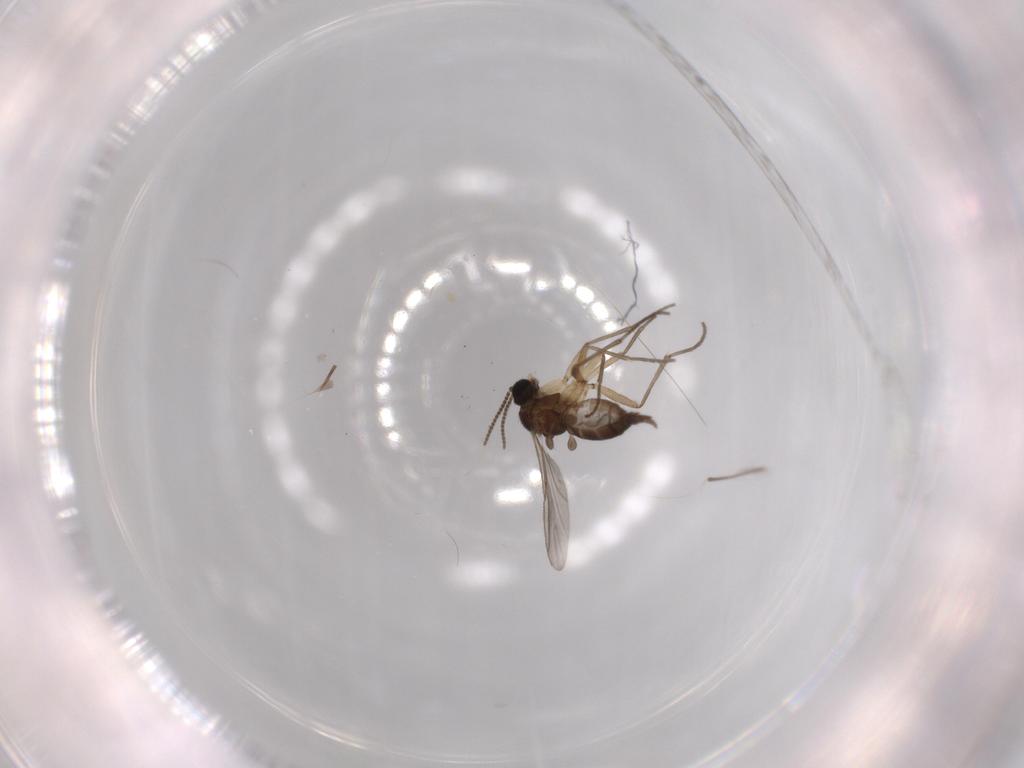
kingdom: Animalia
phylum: Arthropoda
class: Insecta
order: Diptera
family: Sciaridae
